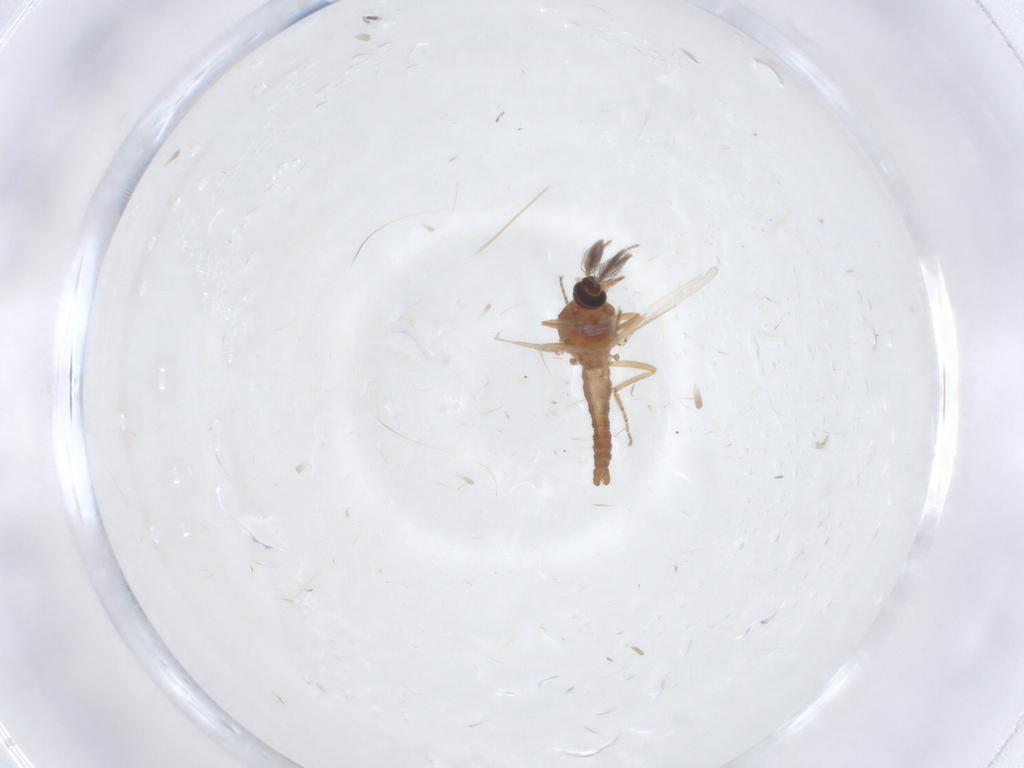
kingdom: Animalia
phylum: Arthropoda
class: Insecta
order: Diptera
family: Ceratopogonidae
